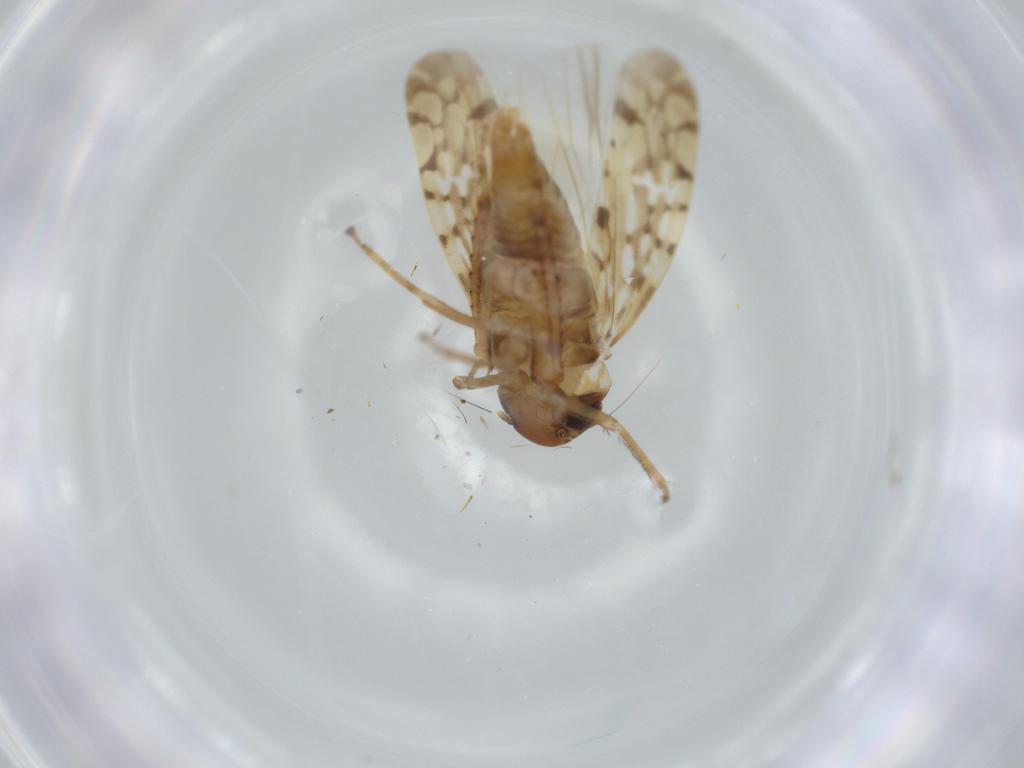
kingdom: Animalia
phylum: Arthropoda
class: Insecta
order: Hemiptera
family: Cicadellidae
